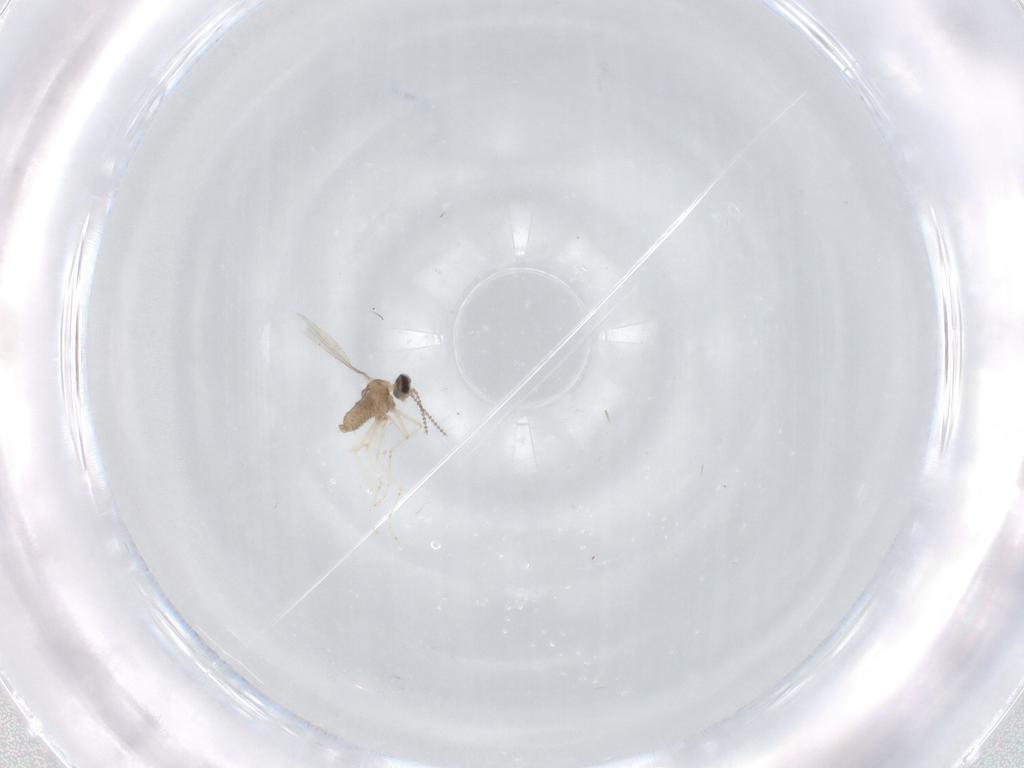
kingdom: Animalia
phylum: Arthropoda
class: Insecta
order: Diptera
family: Cecidomyiidae
